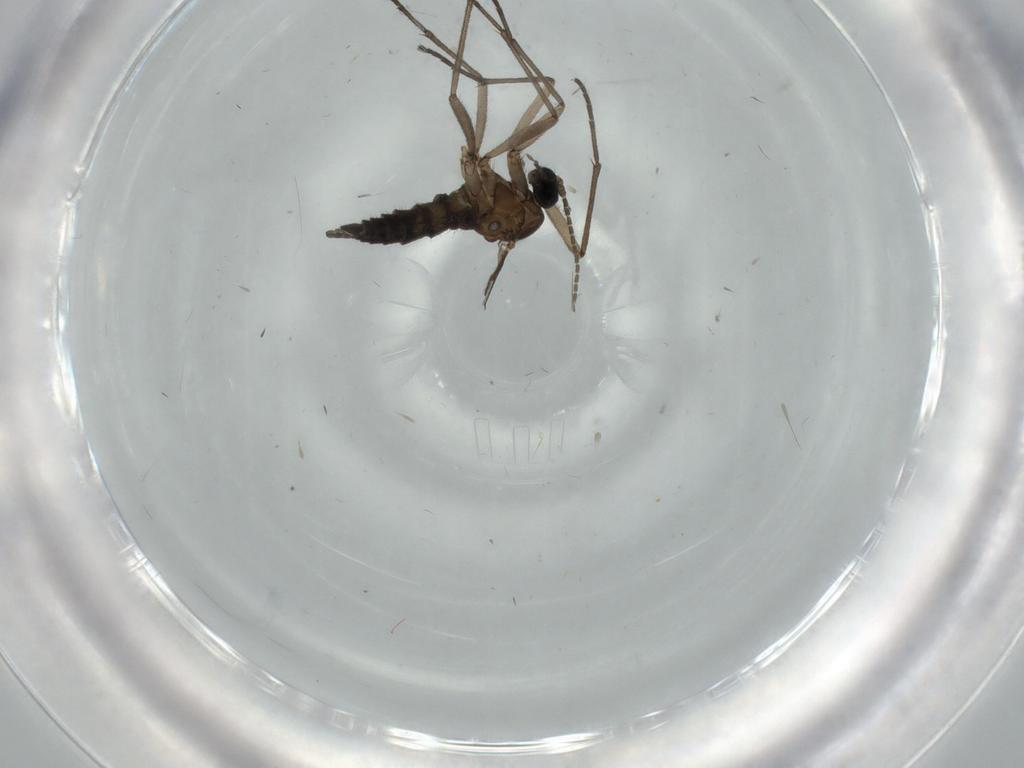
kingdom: Animalia
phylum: Arthropoda
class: Insecta
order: Diptera
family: Sciaridae
